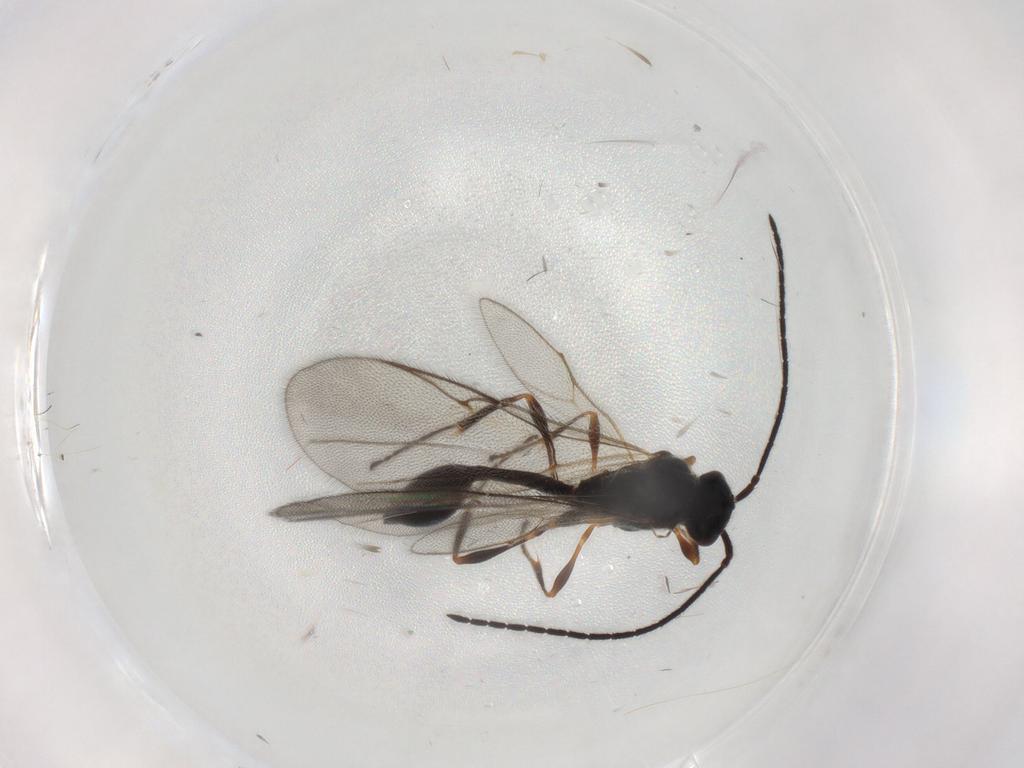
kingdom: Animalia
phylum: Arthropoda
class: Insecta
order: Hymenoptera
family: Diapriidae
